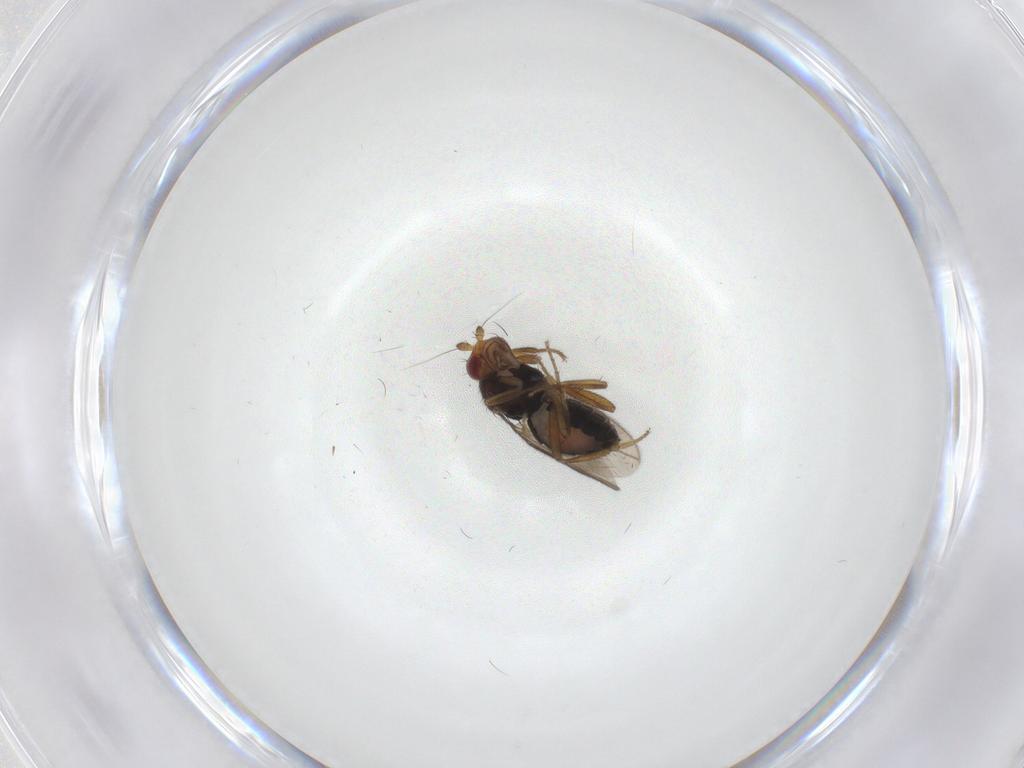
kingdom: Animalia
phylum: Arthropoda
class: Insecta
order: Diptera
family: Sphaeroceridae
